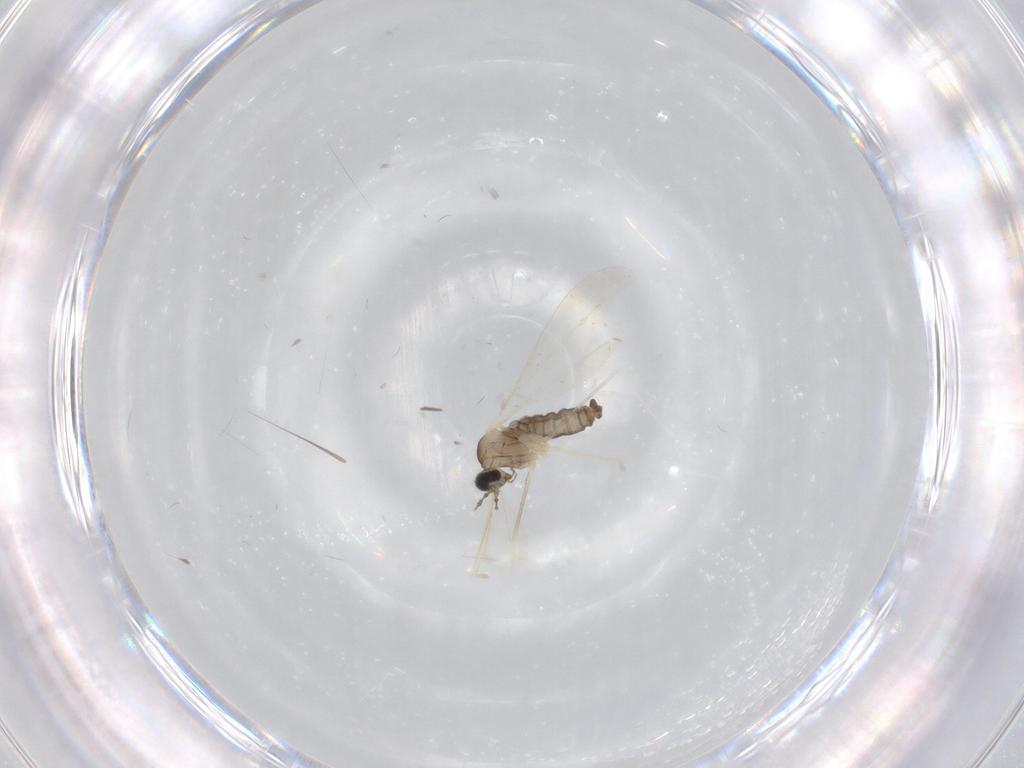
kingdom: Animalia
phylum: Arthropoda
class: Insecta
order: Diptera
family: Cecidomyiidae
